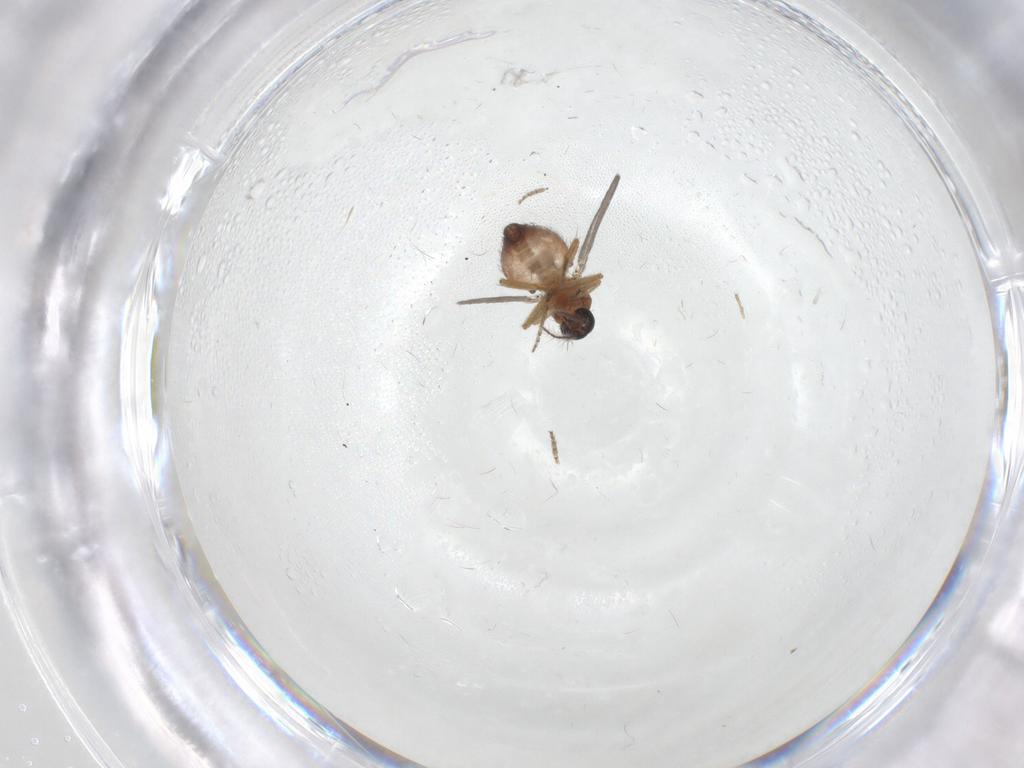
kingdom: Animalia
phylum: Arthropoda
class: Insecta
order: Diptera
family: Ceratopogonidae
